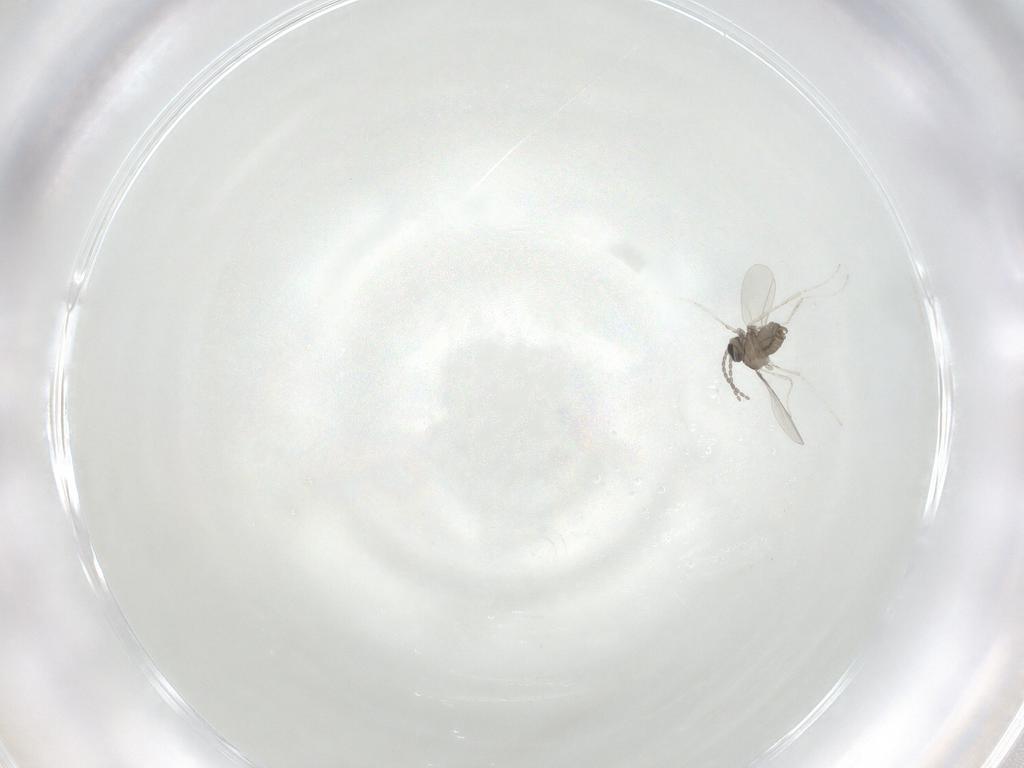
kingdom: Animalia
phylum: Arthropoda
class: Insecta
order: Diptera
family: Cecidomyiidae
